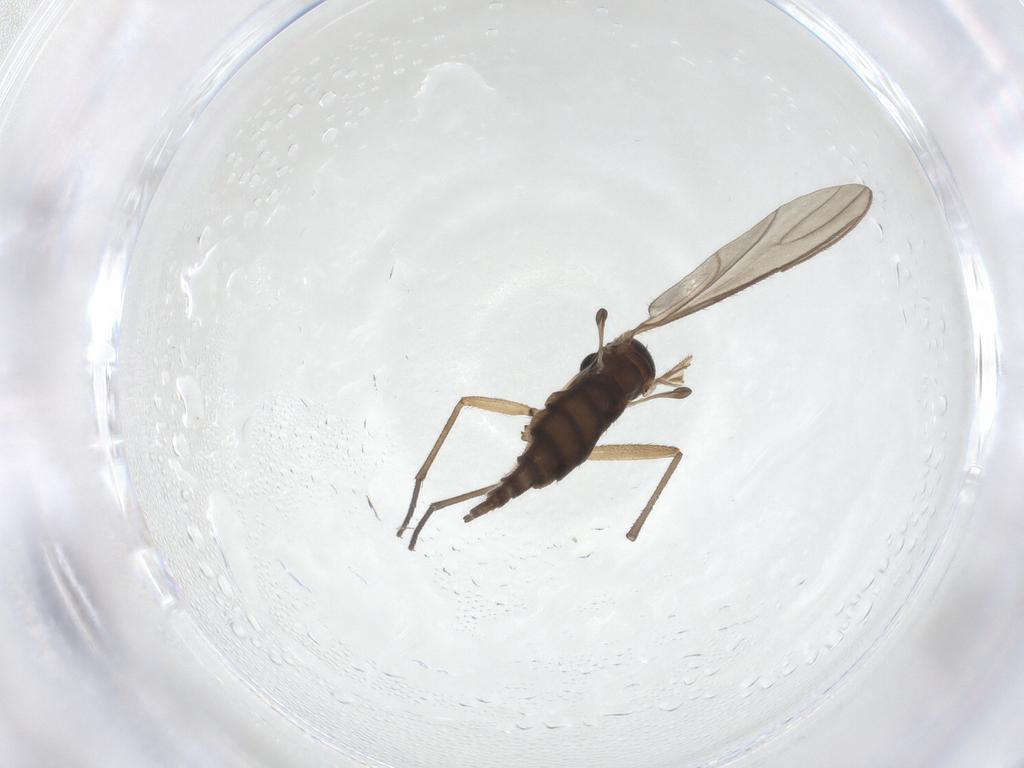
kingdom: Animalia
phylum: Arthropoda
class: Insecta
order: Diptera
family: Sciaridae
